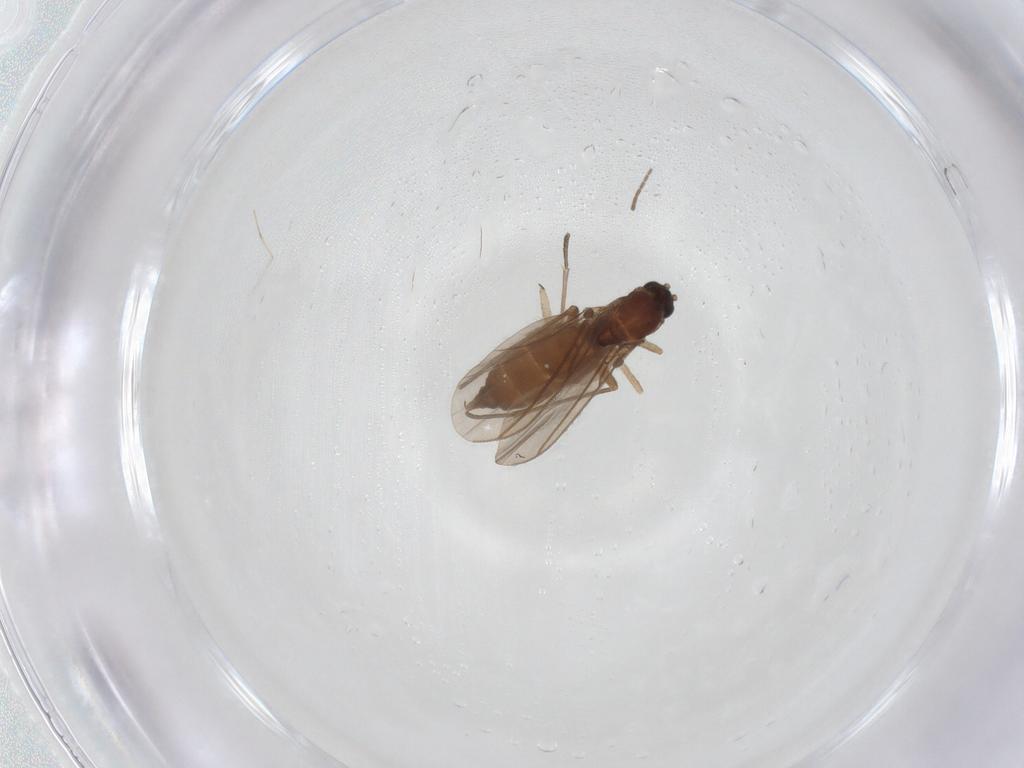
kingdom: Animalia
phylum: Arthropoda
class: Insecta
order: Diptera
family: Sciaridae
